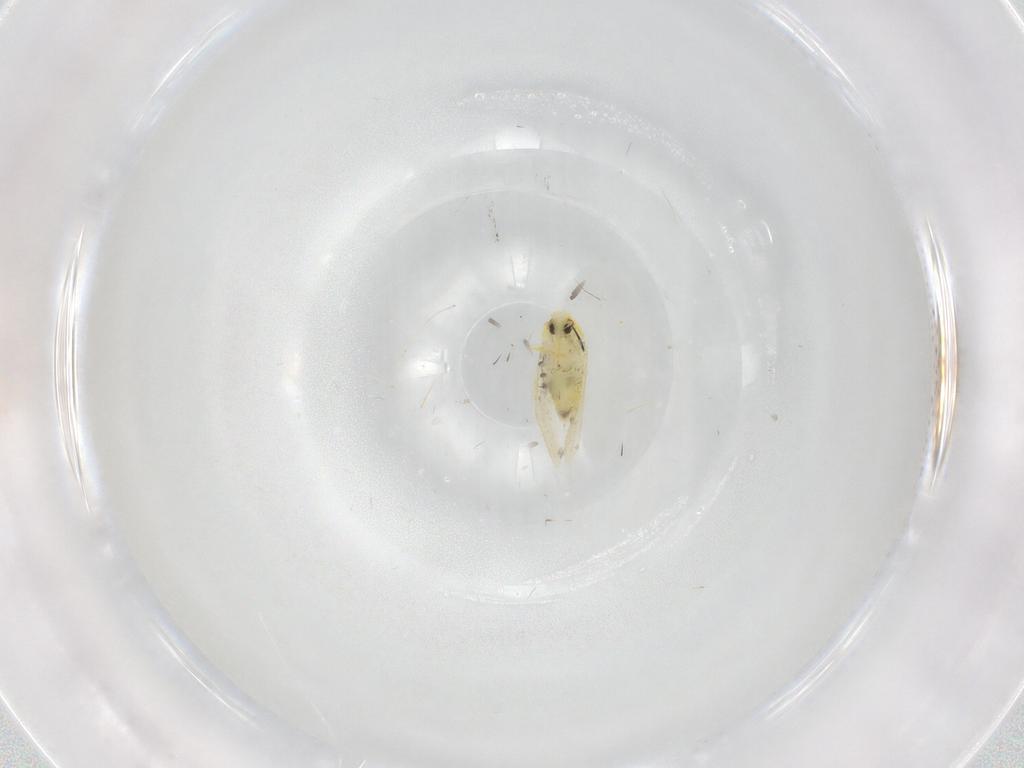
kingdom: Animalia
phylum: Arthropoda
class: Insecta
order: Hemiptera
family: Aleyrodidae
